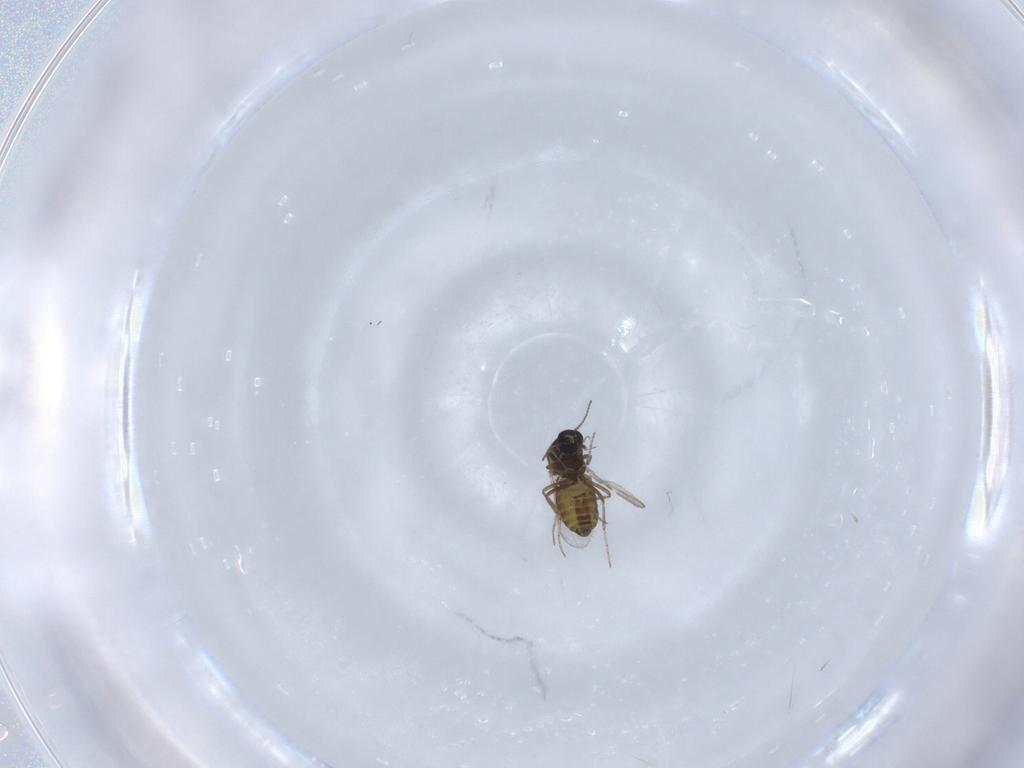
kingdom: Animalia
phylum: Arthropoda
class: Insecta
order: Diptera
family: Ceratopogonidae
